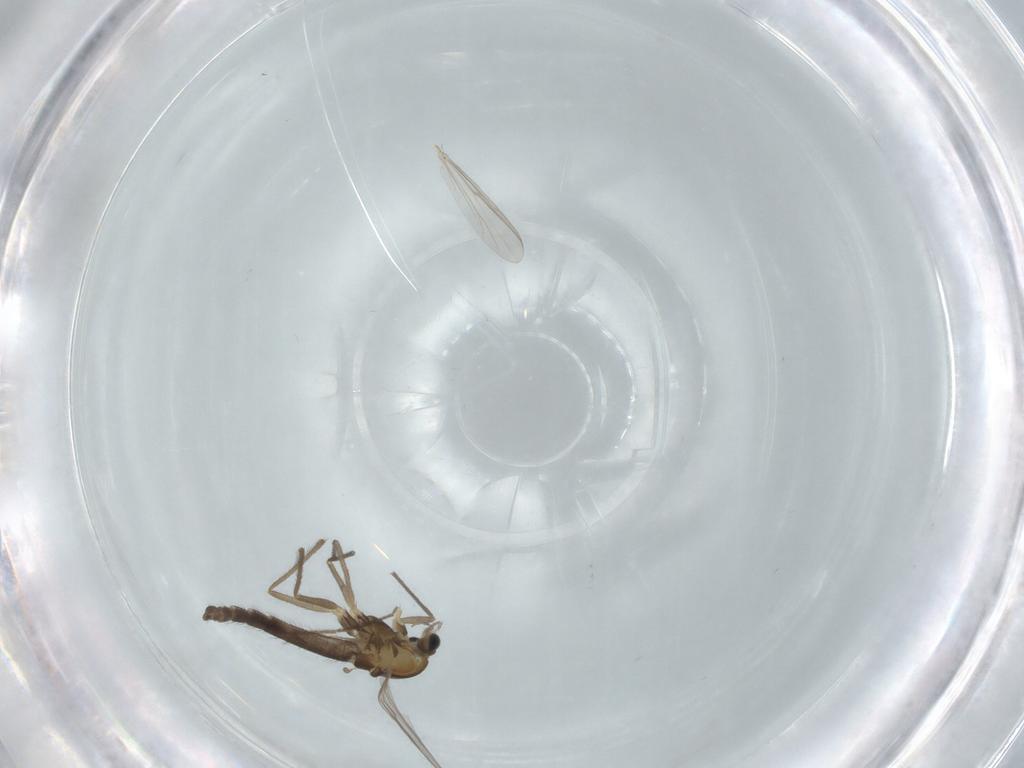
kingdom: Animalia
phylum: Arthropoda
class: Insecta
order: Diptera
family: Chironomidae
